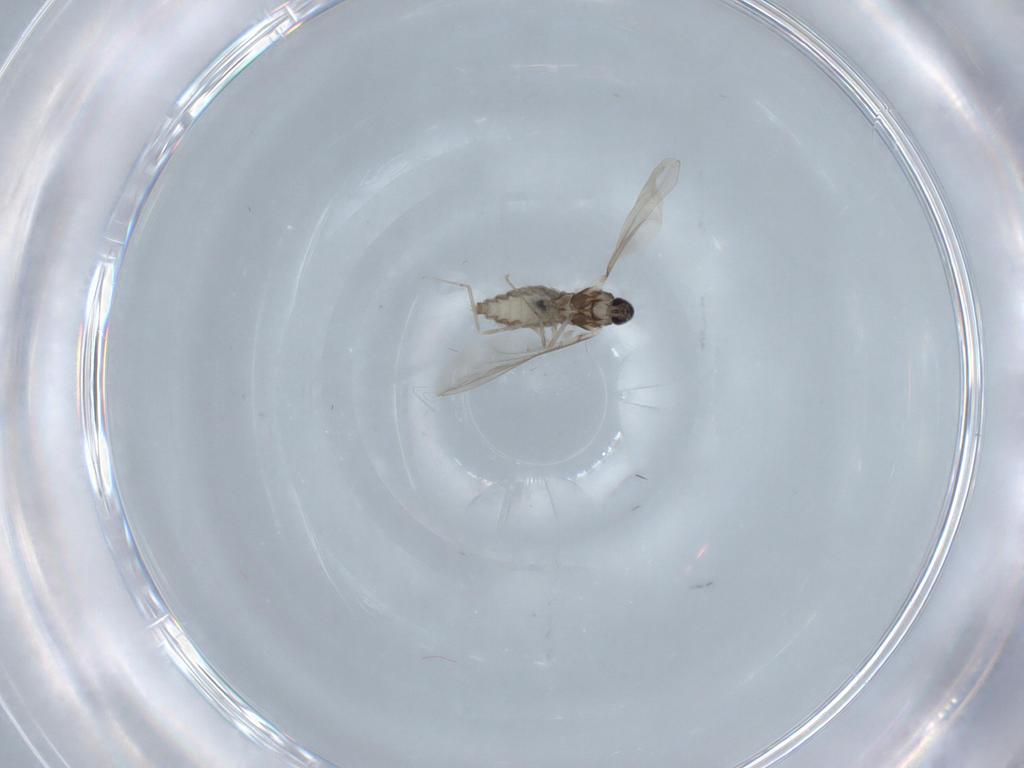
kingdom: Animalia
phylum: Arthropoda
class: Insecta
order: Diptera
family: Cecidomyiidae
